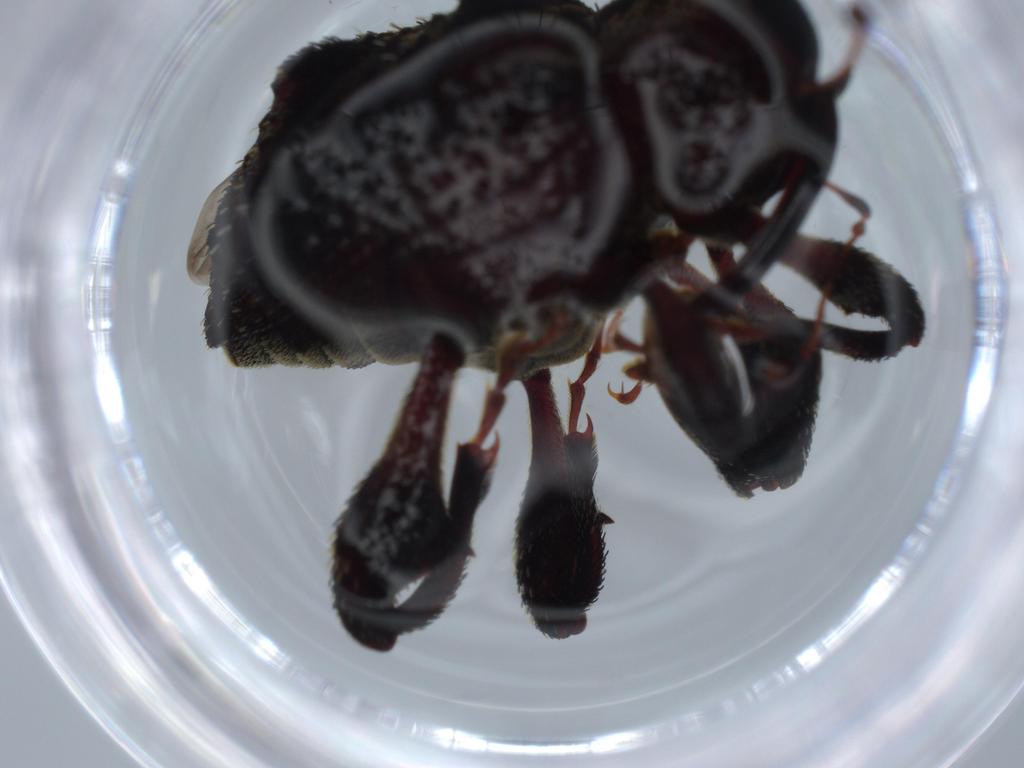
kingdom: Animalia
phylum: Arthropoda
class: Insecta
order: Coleoptera
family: Curculionidae
